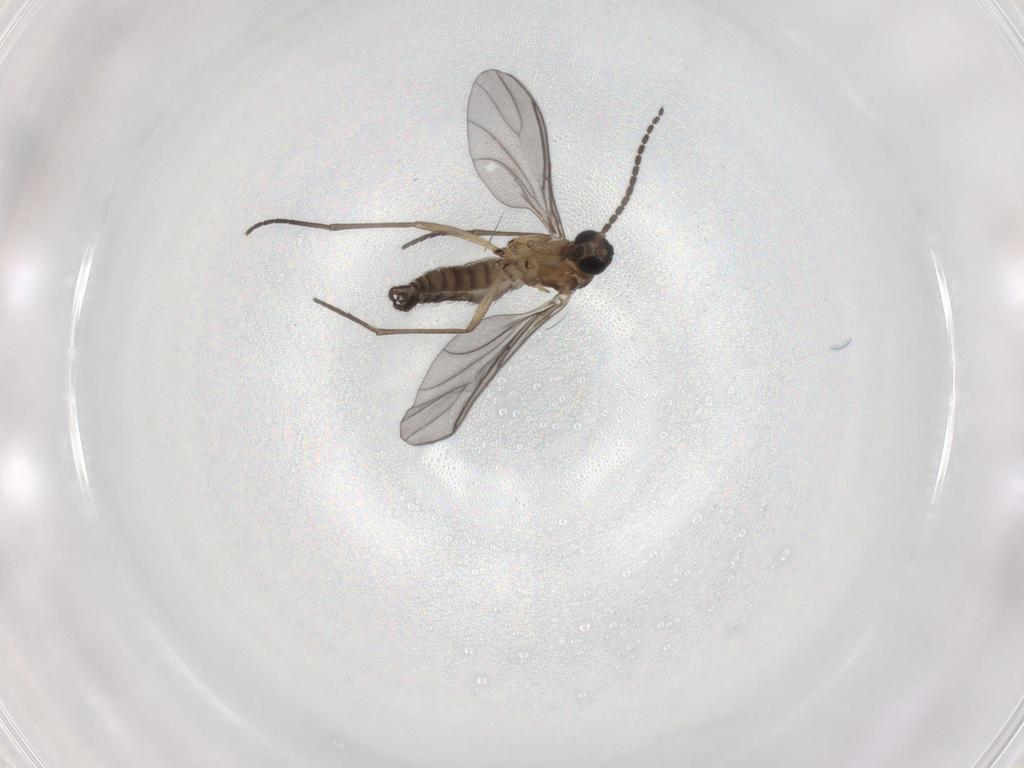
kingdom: Animalia
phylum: Arthropoda
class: Insecta
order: Diptera
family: Sciaridae
